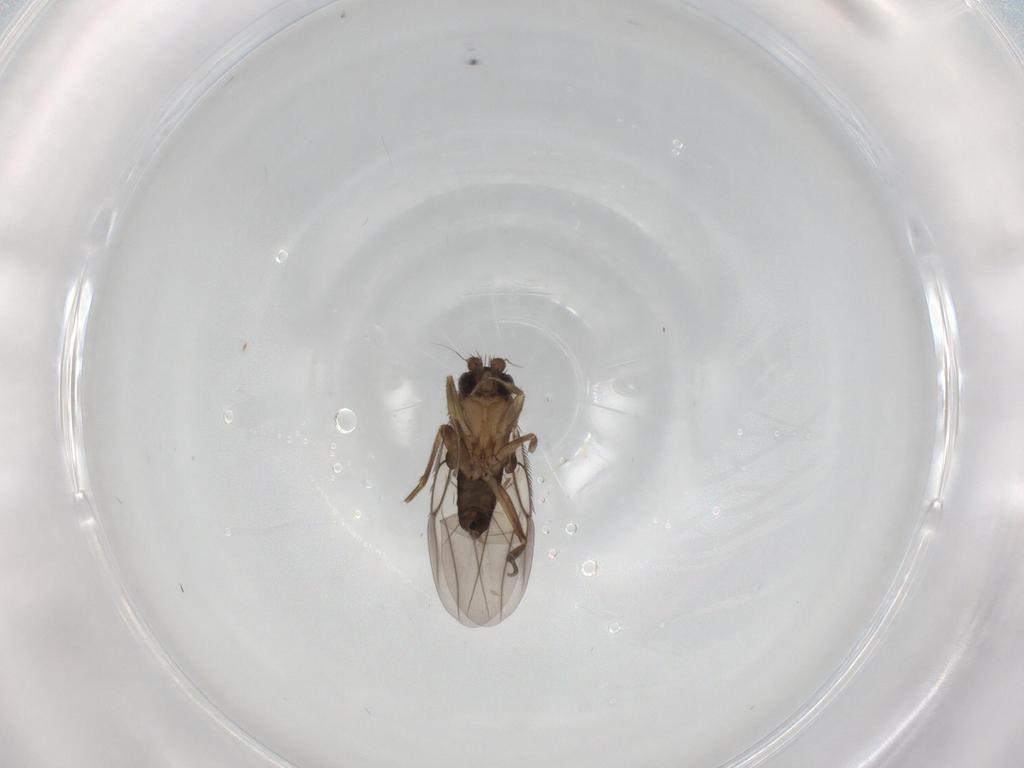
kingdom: Animalia
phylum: Arthropoda
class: Insecta
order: Diptera
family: Phoridae
